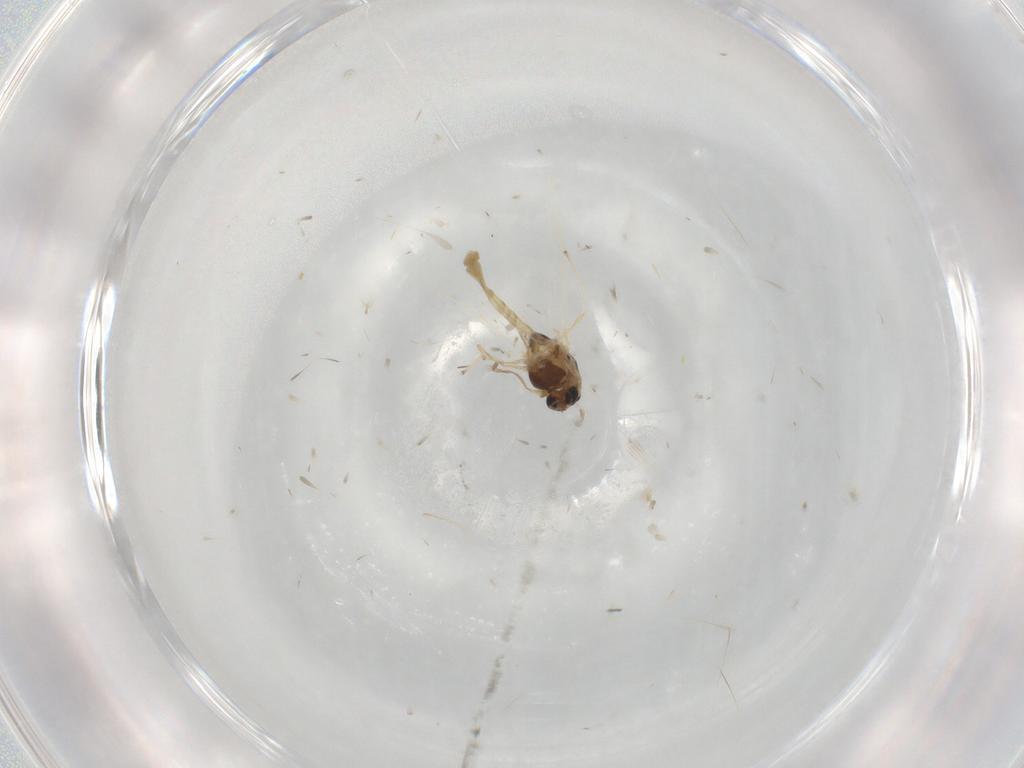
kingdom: Animalia
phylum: Arthropoda
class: Insecta
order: Diptera
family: Chironomidae
